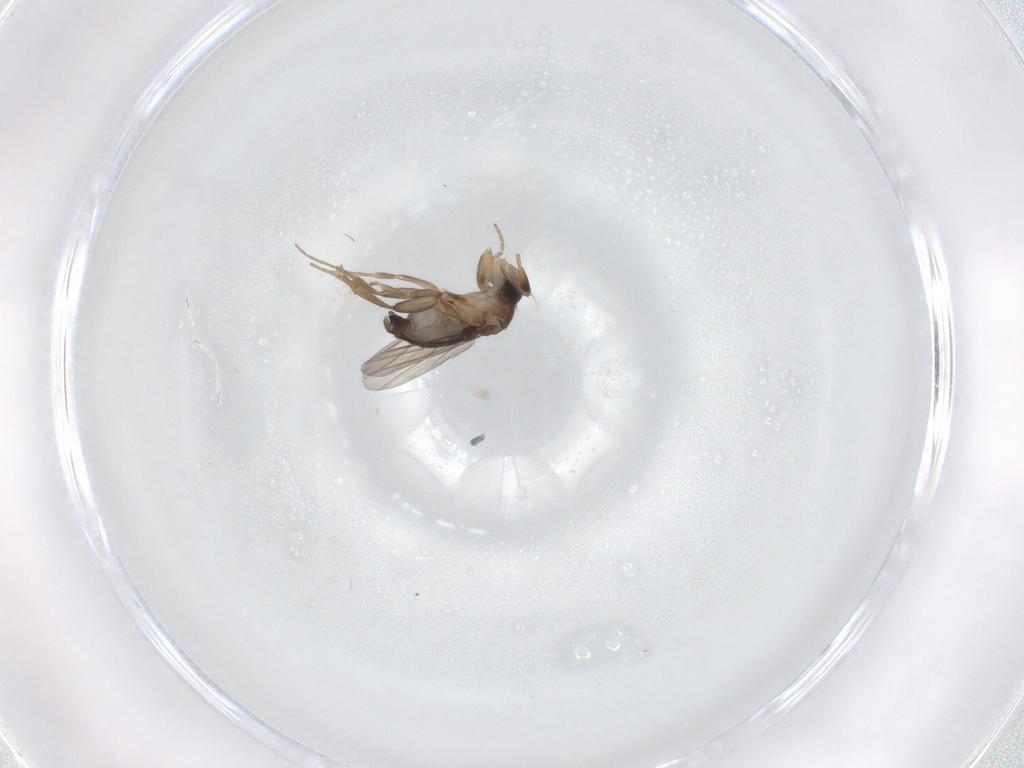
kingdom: Animalia
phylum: Arthropoda
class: Insecta
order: Diptera
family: Phoridae
